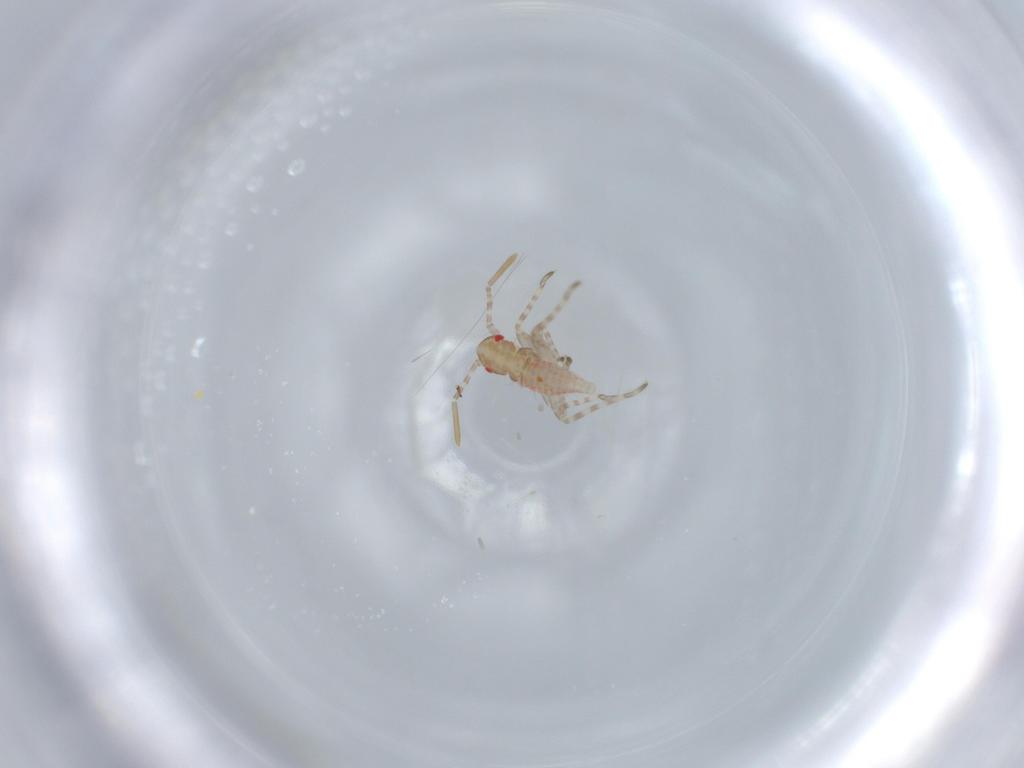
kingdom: Animalia
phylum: Arthropoda
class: Insecta
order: Hemiptera
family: Miridae
